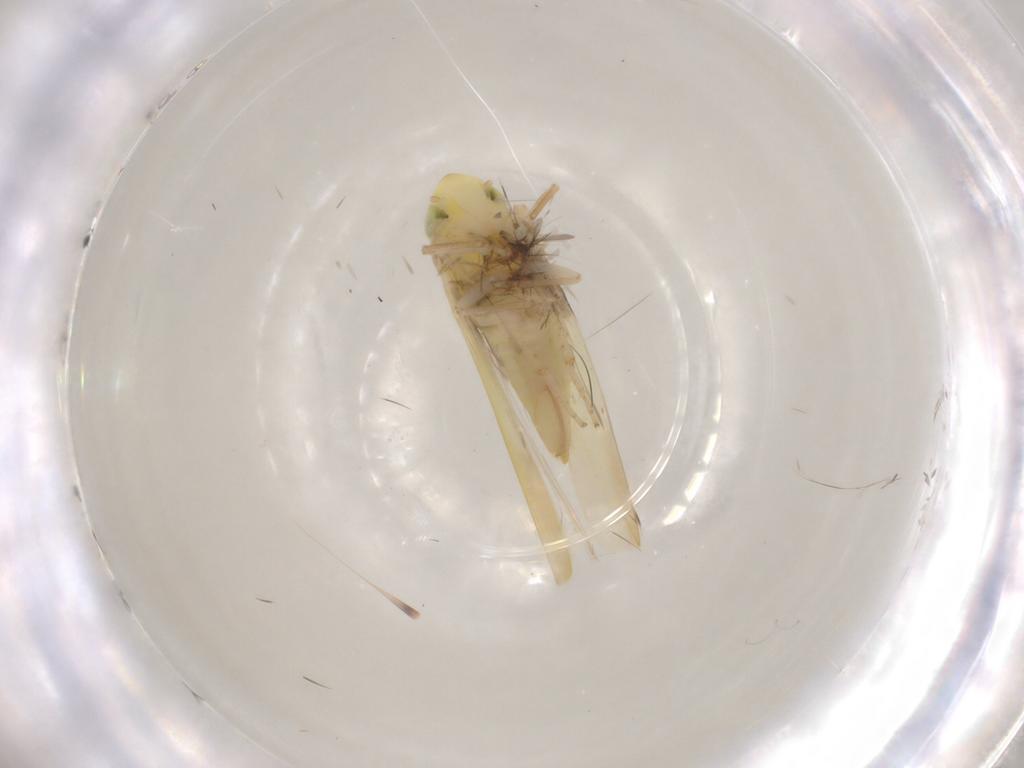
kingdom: Animalia
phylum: Arthropoda
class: Insecta
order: Hemiptera
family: Cicadellidae
